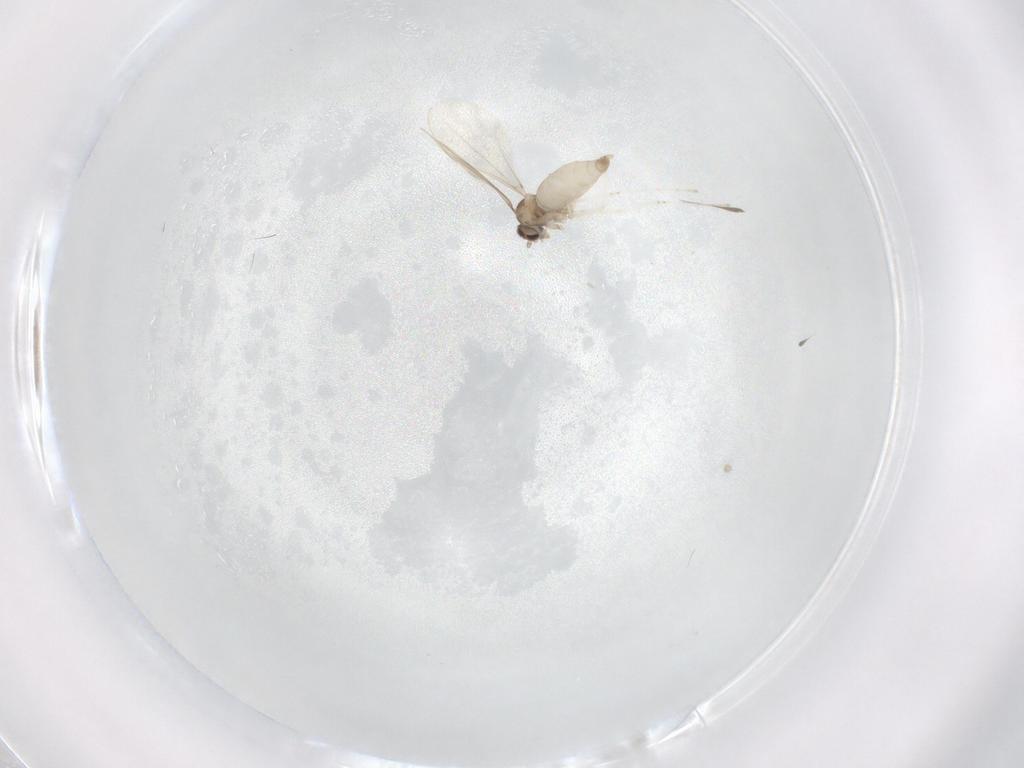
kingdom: Animalia
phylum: Arthropoda
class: Insecta
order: Diptera
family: Cecidomyiidae
